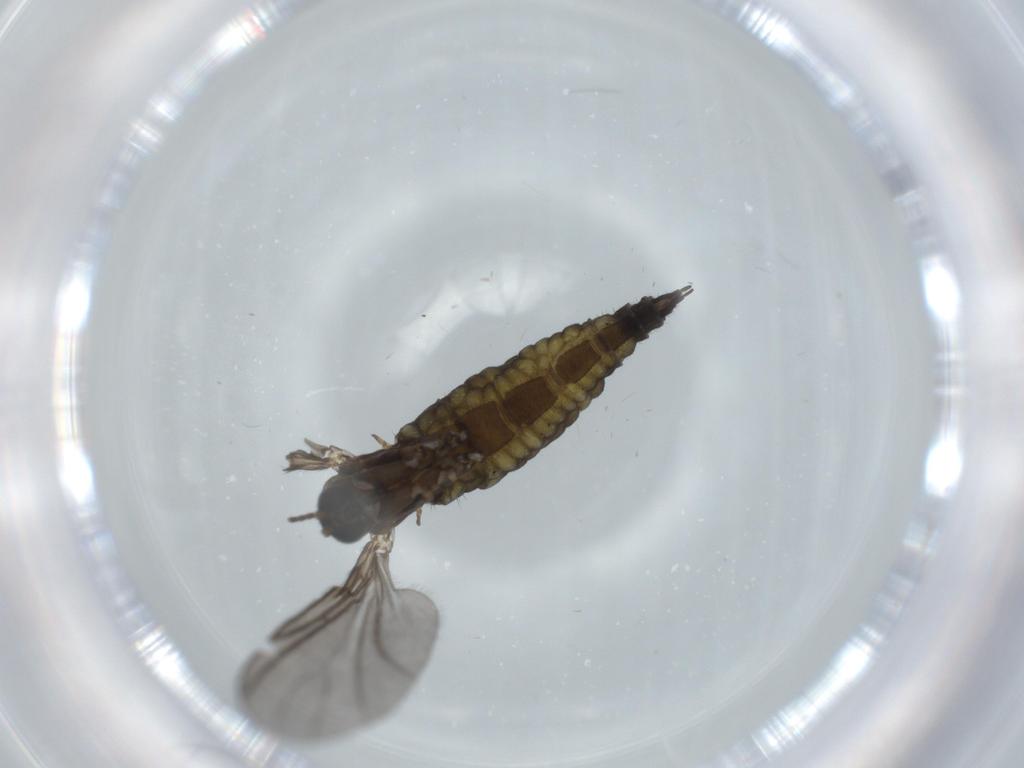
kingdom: Animalia
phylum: Arthropoda
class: Insecta
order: Diptera
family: Sciaridae
